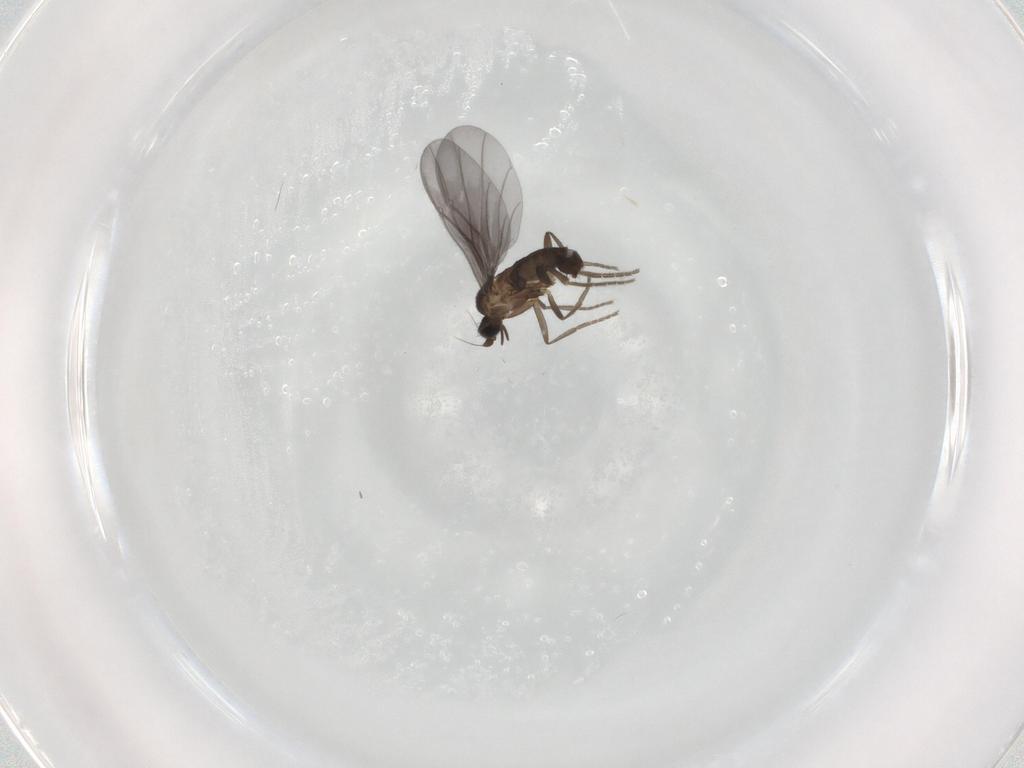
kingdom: Animalia
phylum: Arthropoda
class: Insecta
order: Diptera
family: Phoridae
